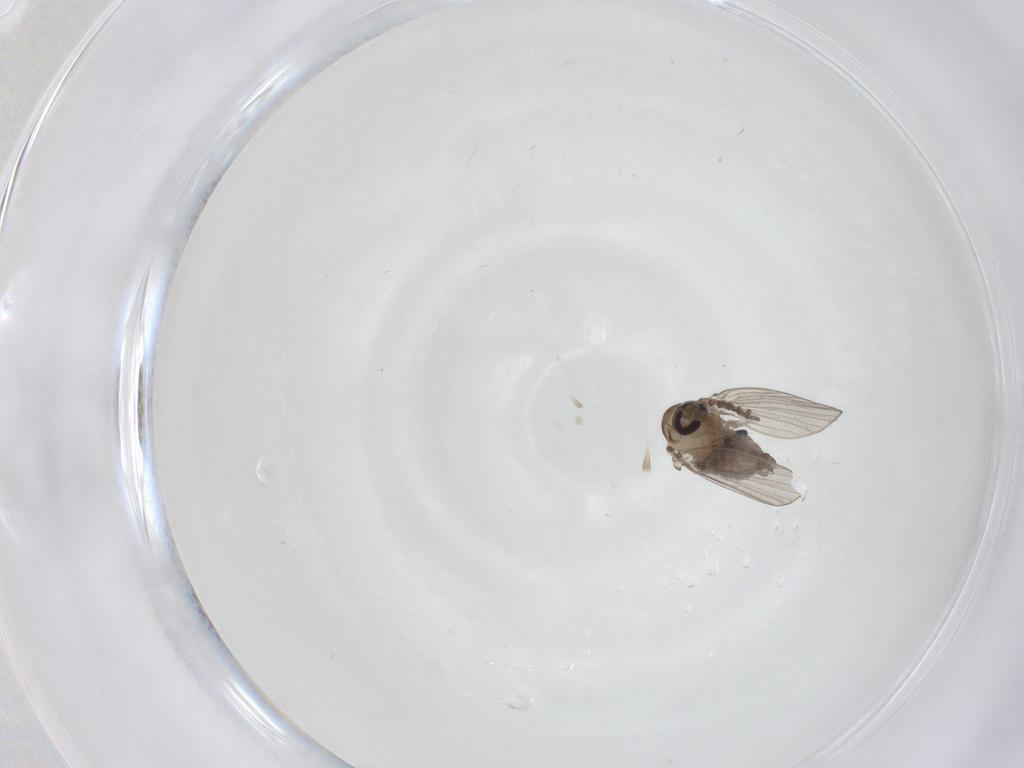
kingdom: Animalia
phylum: Arthropoda
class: Insecta
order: Diptera
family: Psychodidae
